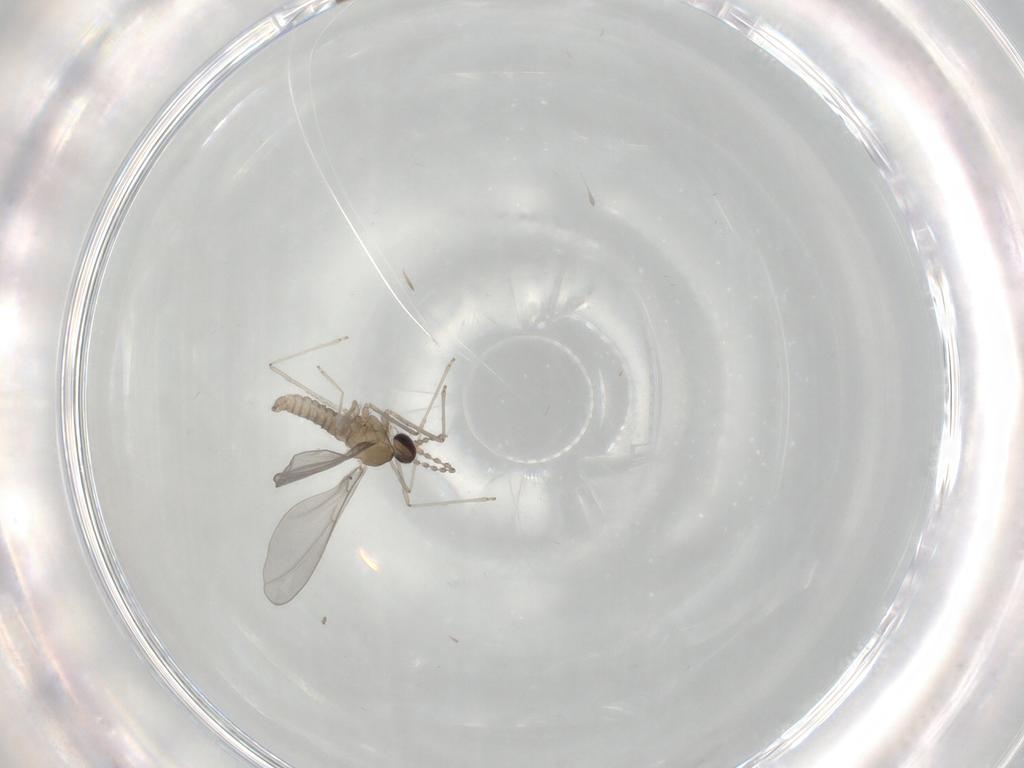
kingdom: Animalia
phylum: Arthropoda
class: Insecta
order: Diptera
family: Cecidomyiidae
